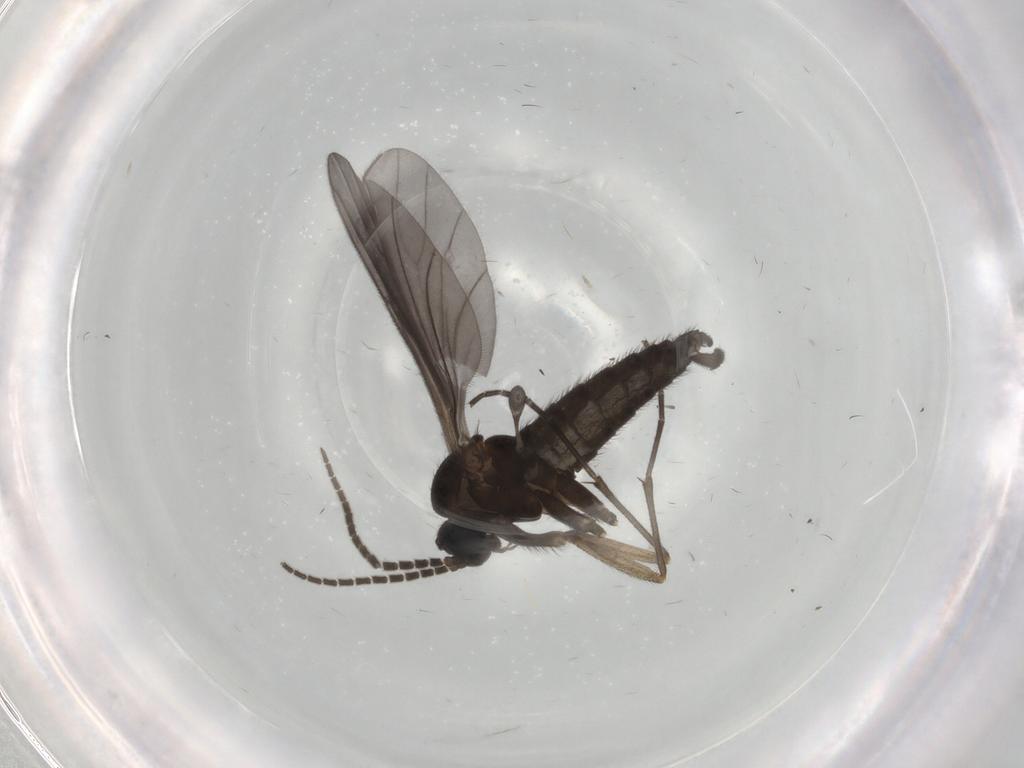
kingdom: Animalia
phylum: Arthropoda
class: Insecta
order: Diptera
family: Sciaridae
